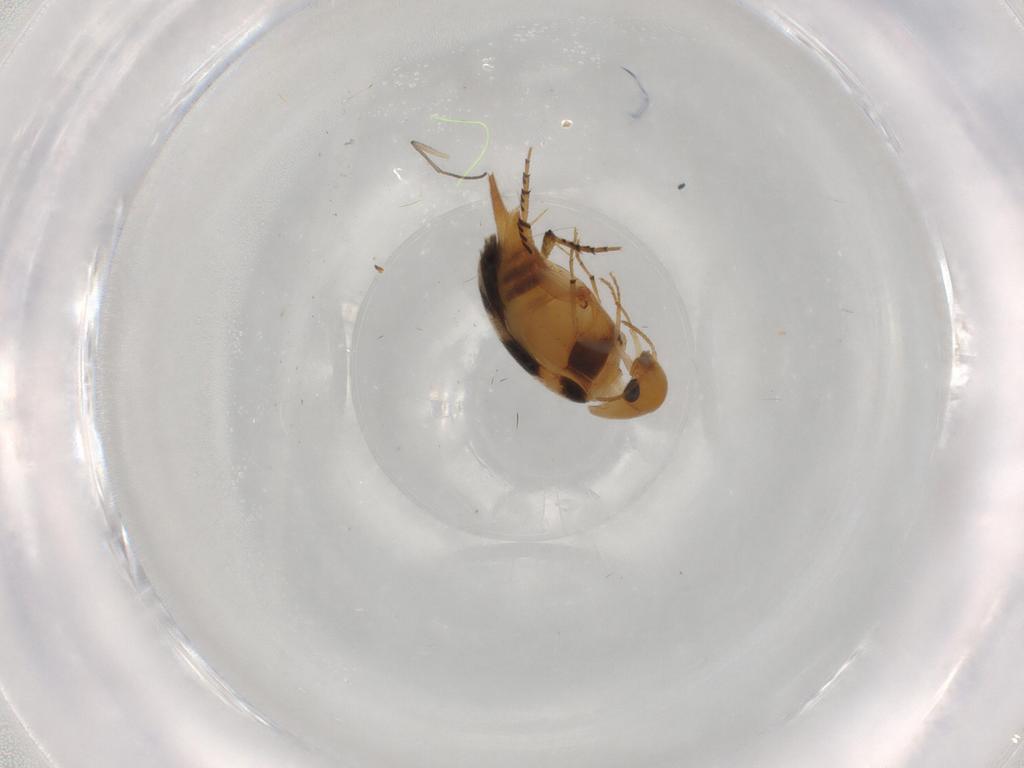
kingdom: Animalia
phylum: Arthropoda
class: Insecta
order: Coleoptera
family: Mordellidae
